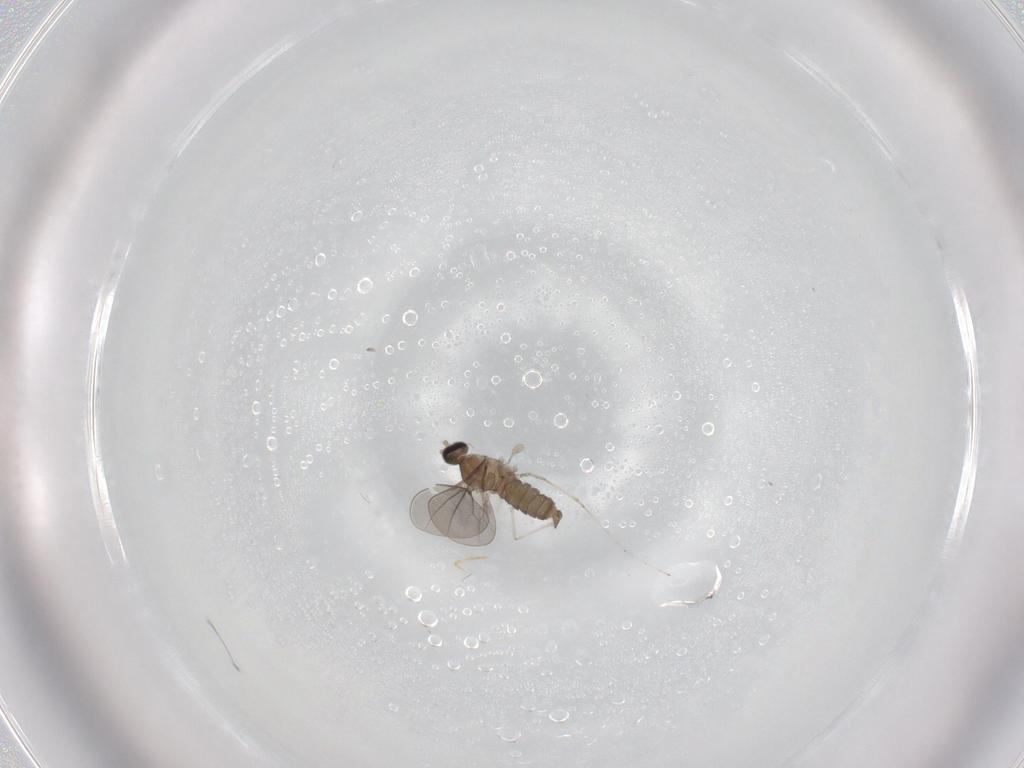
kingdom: Animalia
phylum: Arthropoda
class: Insecta
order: Diptera
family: Cecidomyiidae
